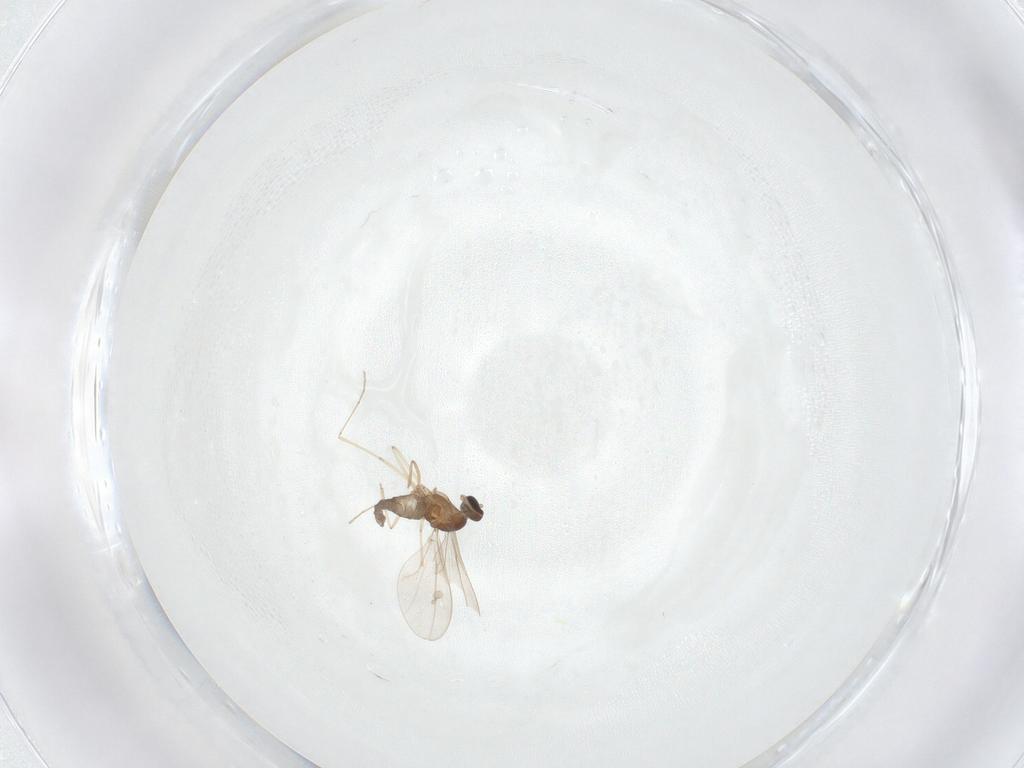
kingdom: Animalia
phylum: Arthropoda
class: Insecta
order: Diptera
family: Cecidomyiidae
